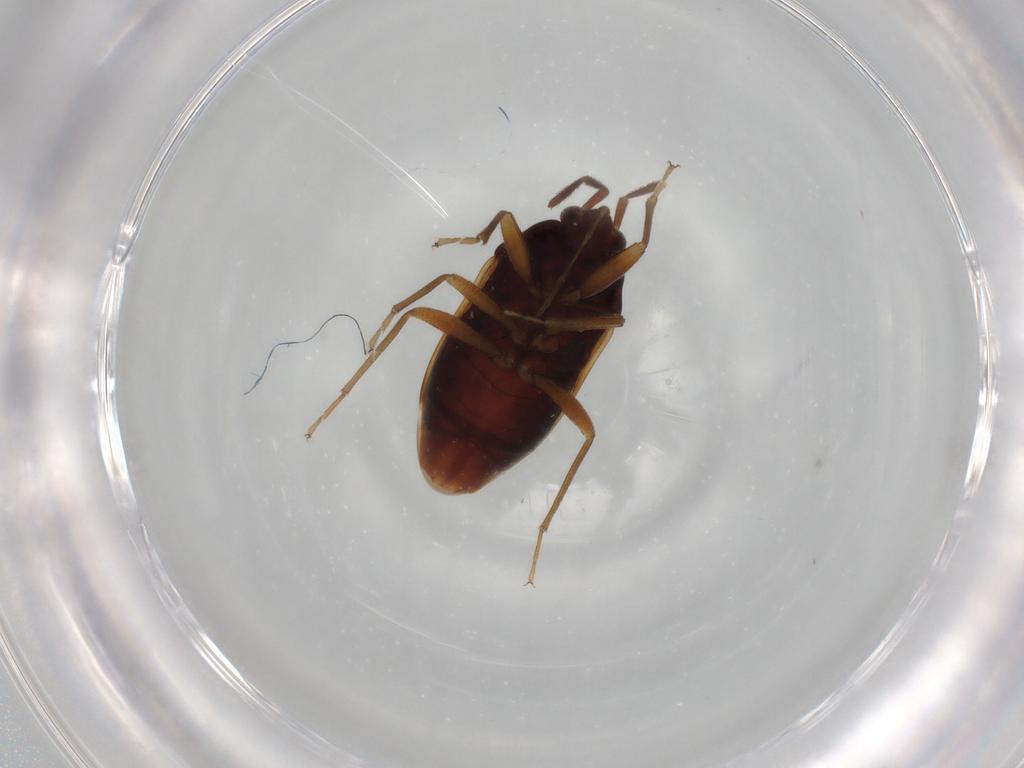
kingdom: Animalia
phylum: Arthropoda
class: Insecta
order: Hemiptera
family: Rhyparochromidae
